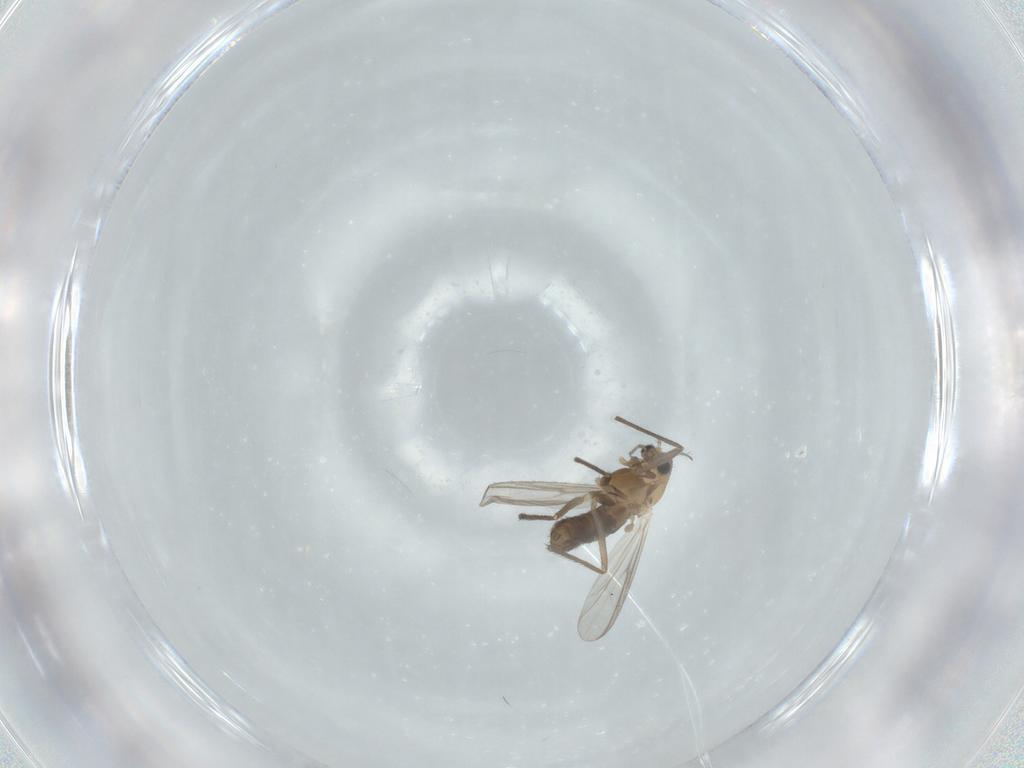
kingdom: Animalia
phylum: Arthropoda
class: Insecta
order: Diptera
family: Chironomidae
